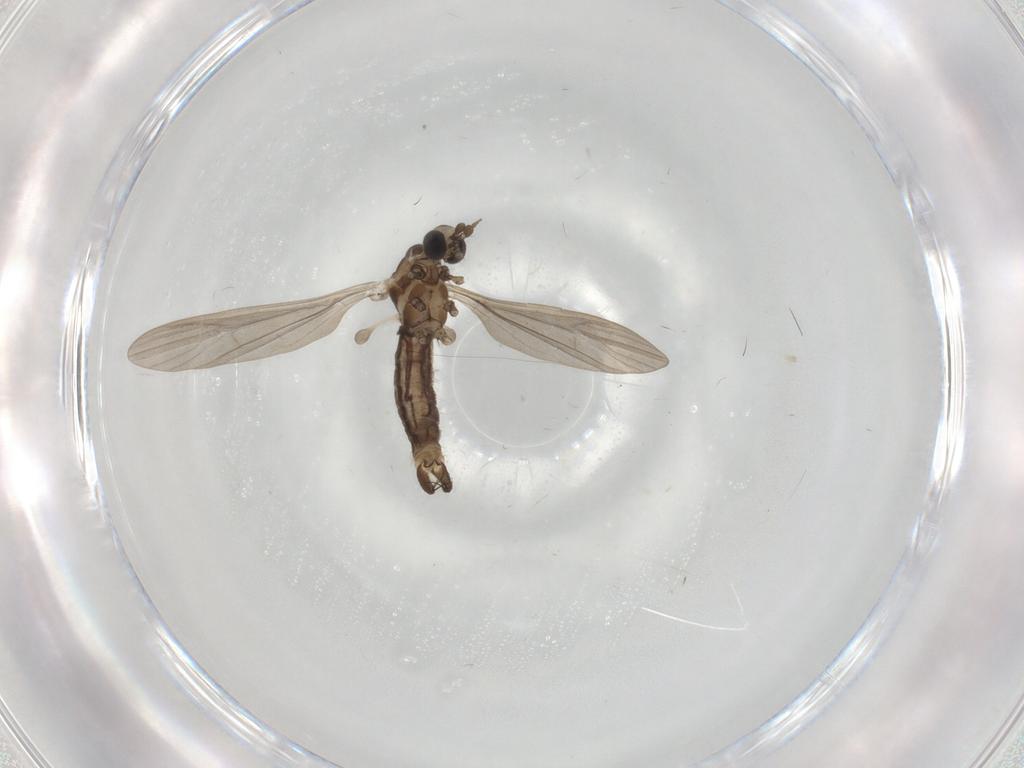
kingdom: Animalia
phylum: Arthropoda
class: Insecta
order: Diptera
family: Limoniidae
